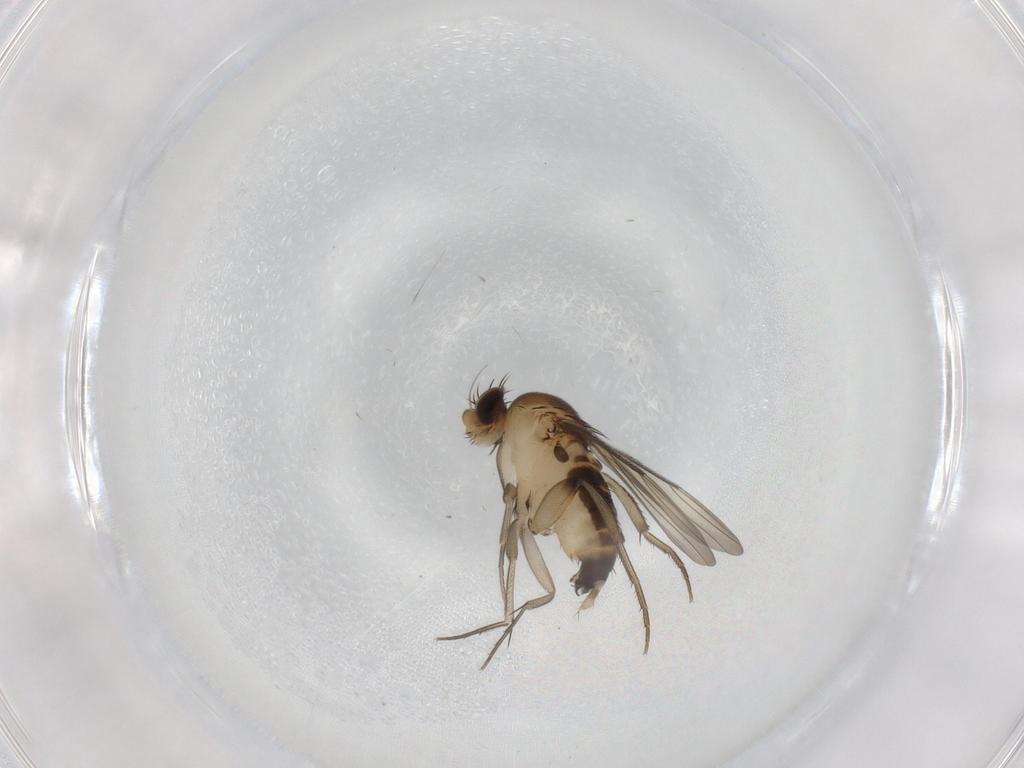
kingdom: Animalia
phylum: Arthropoda
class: Insecta
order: Diptera
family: Phoridae
